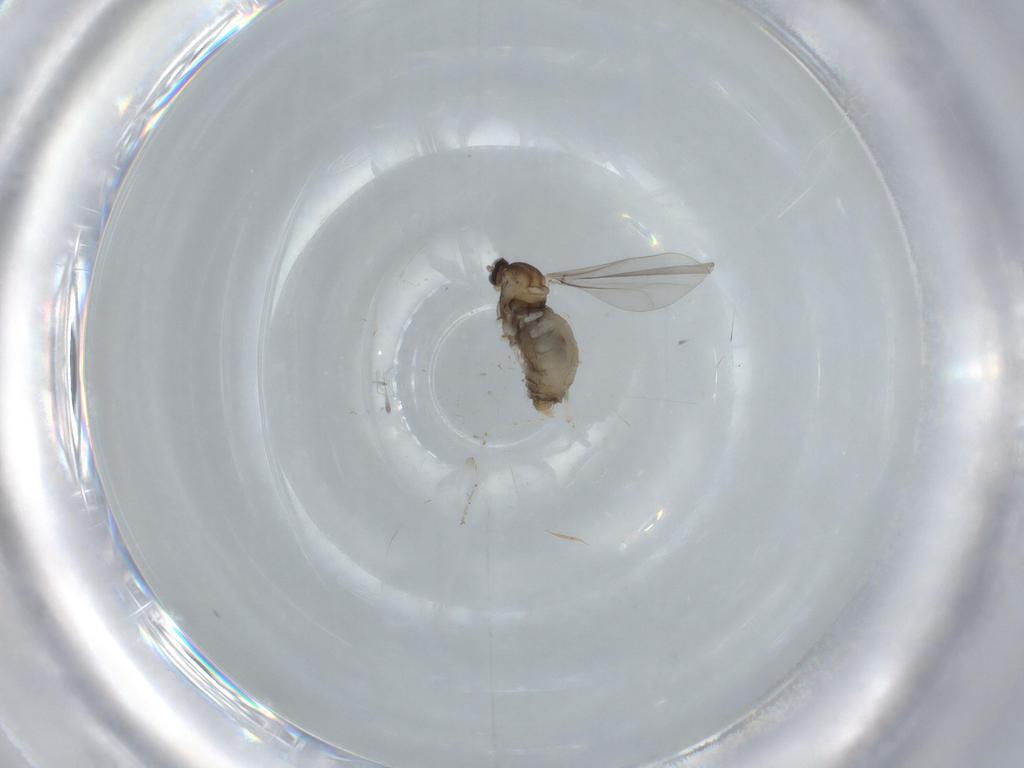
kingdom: Animalia
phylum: Arthropoda
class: Insecta
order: Diptera
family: Cecidomyiidae
